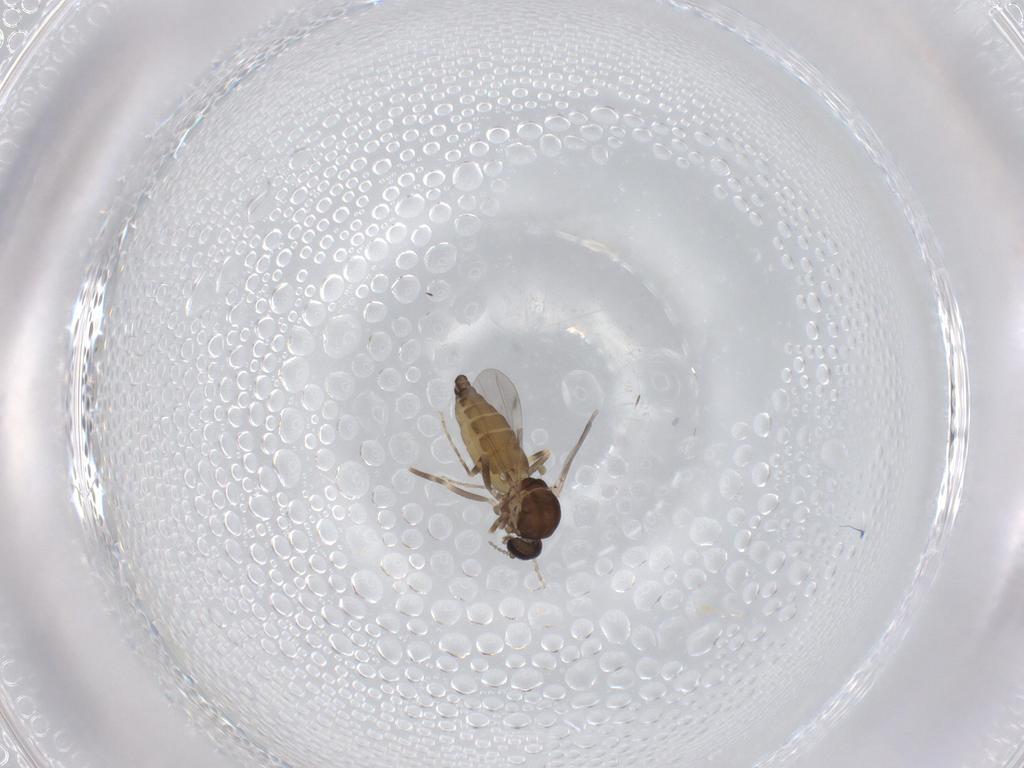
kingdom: Animalia
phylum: Arthropoda
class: Insecta
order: Diptera
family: Ceratopogonidae
